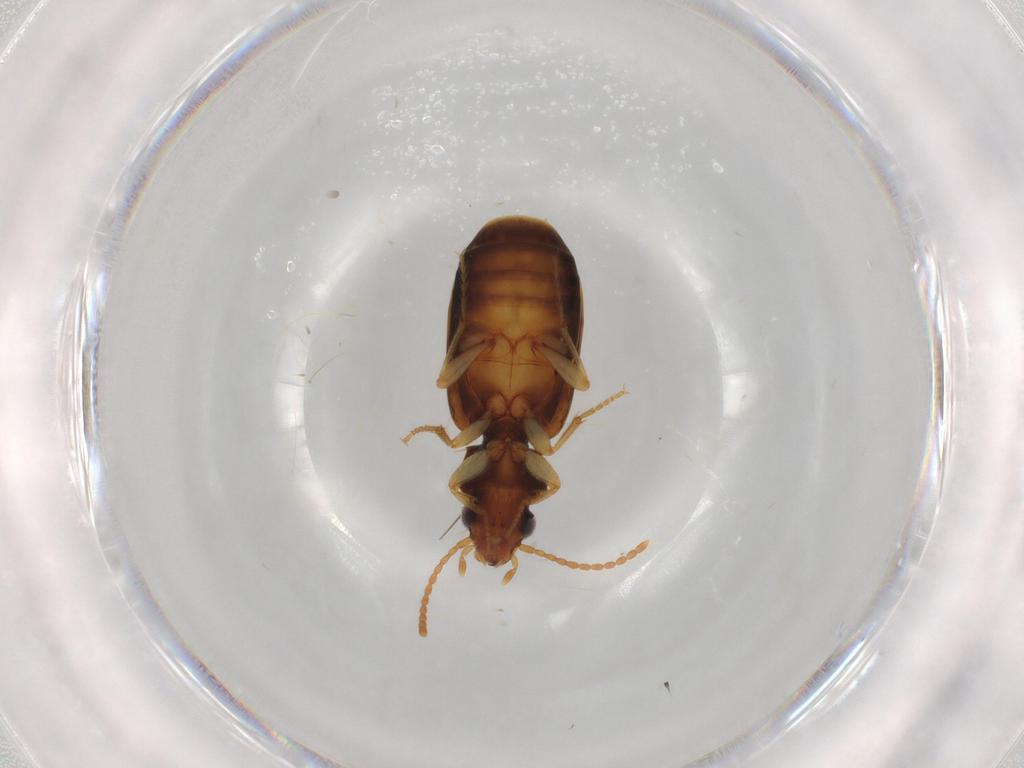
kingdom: Animalia
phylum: Arthropoda
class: Insecta
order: Coleoptera
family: Carabidae
